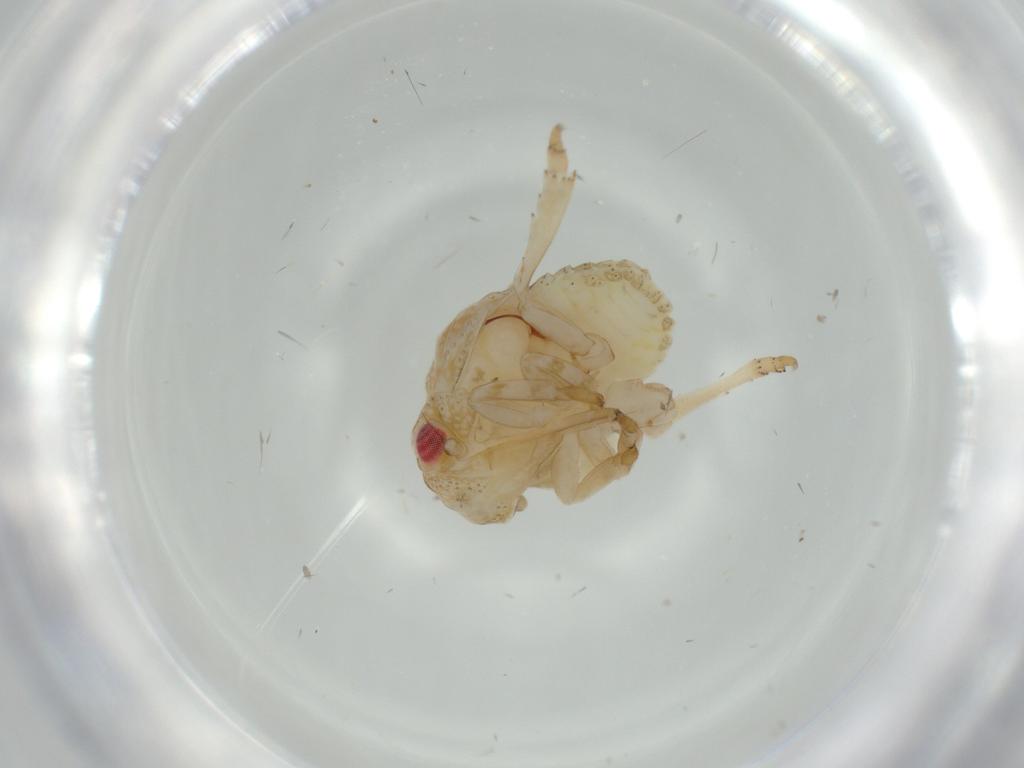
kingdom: Animalia
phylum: Arthropoda
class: Insecta
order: Hemiptera
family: Acanaloniidae
